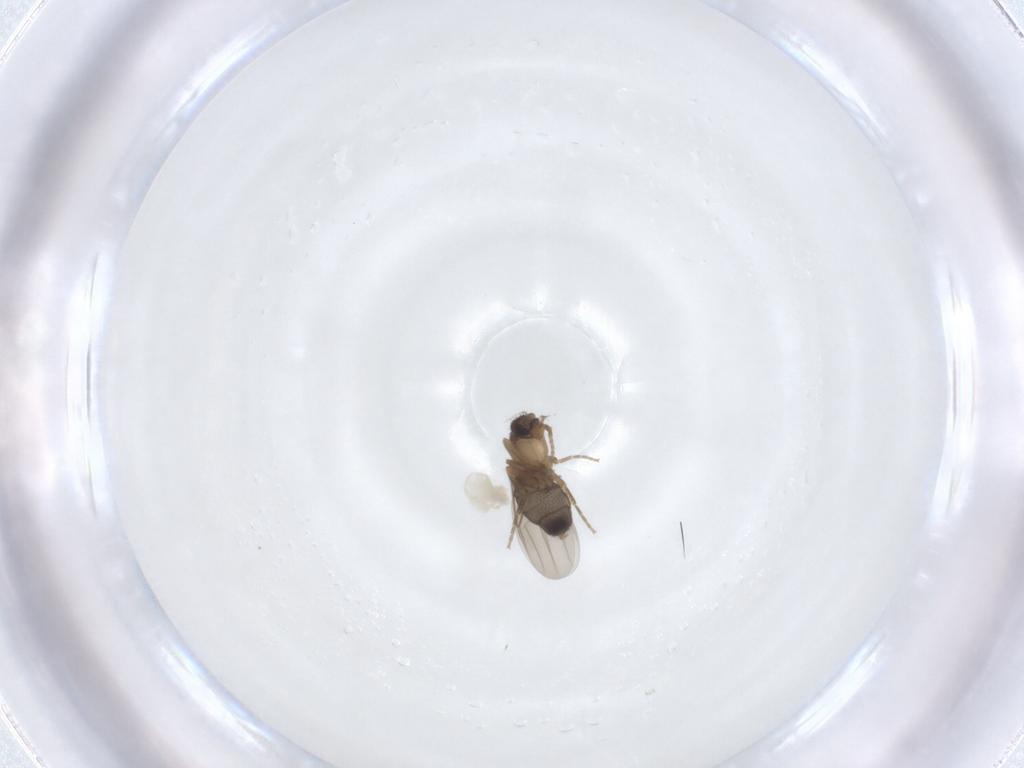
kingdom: Animalia
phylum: Arthropoda
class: Insecta
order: Diptera
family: Phoridae
